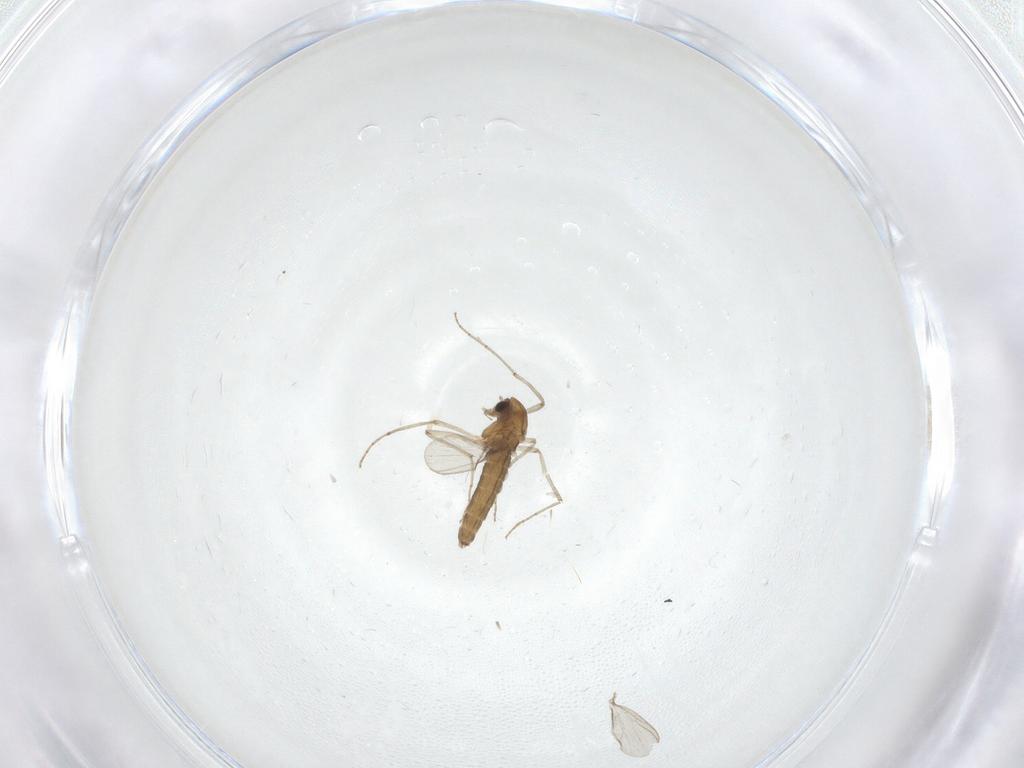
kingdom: Animalia
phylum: Arthropoda
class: Insecta
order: Diptera
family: Chironomidae
